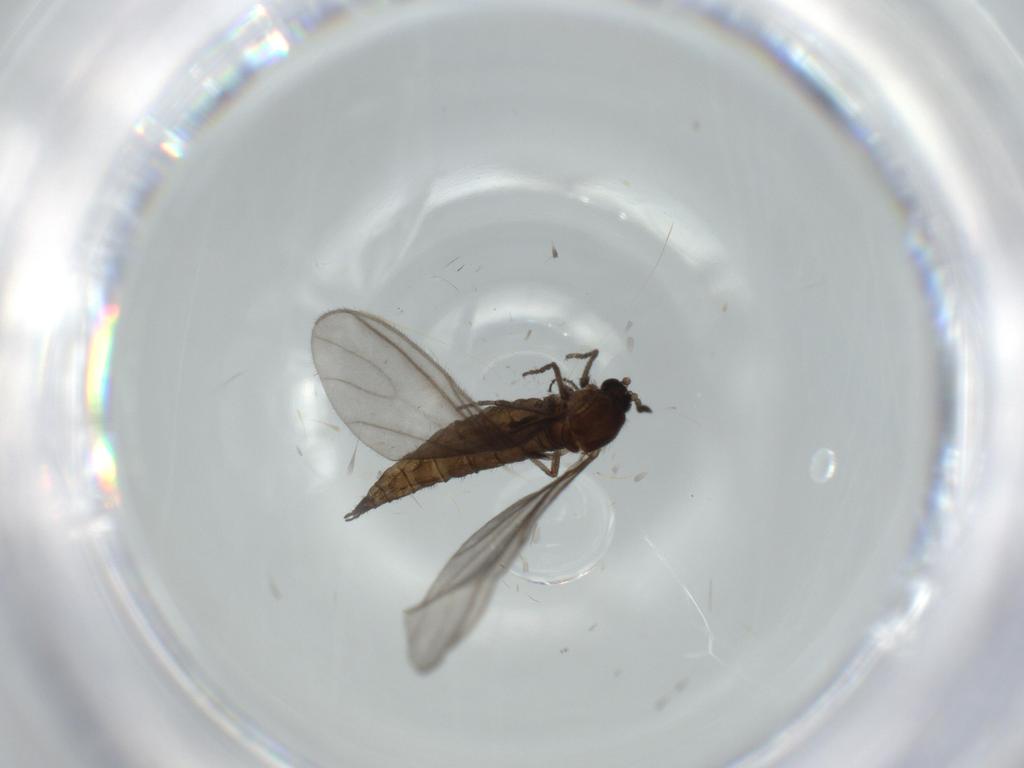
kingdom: Animalia
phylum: Arthropoda
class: Insecta
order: Diptera
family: Sciaridae
